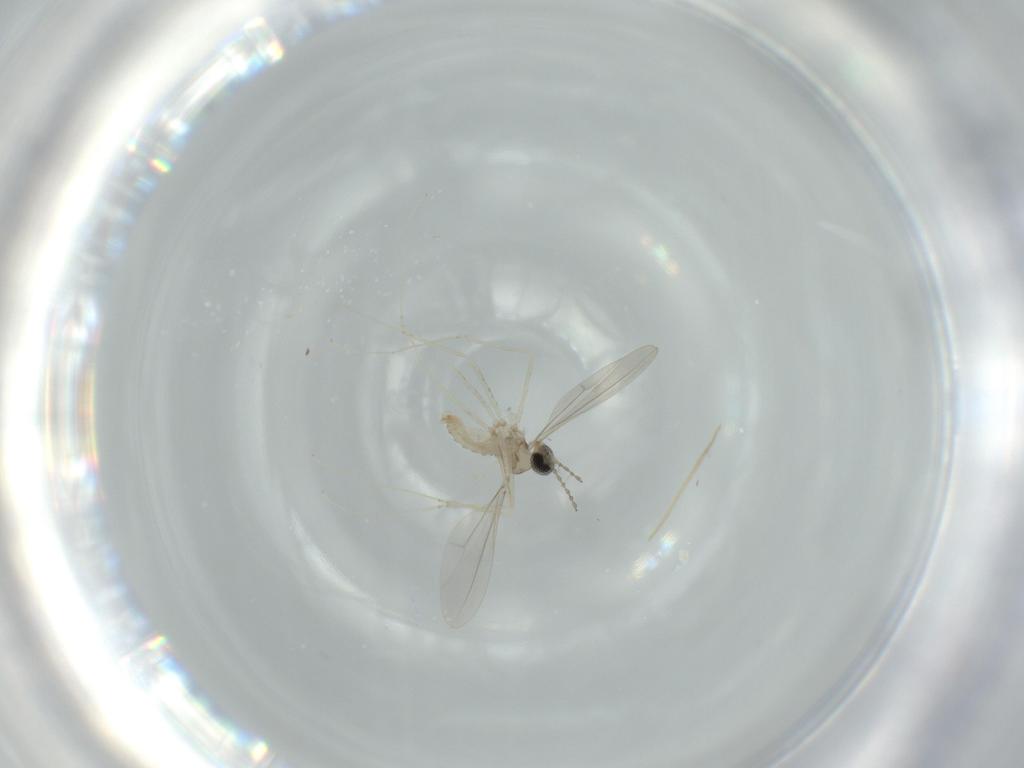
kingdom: Animalia
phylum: Arthropoda
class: Insecta
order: Diptera
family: Cecidomyiidae
